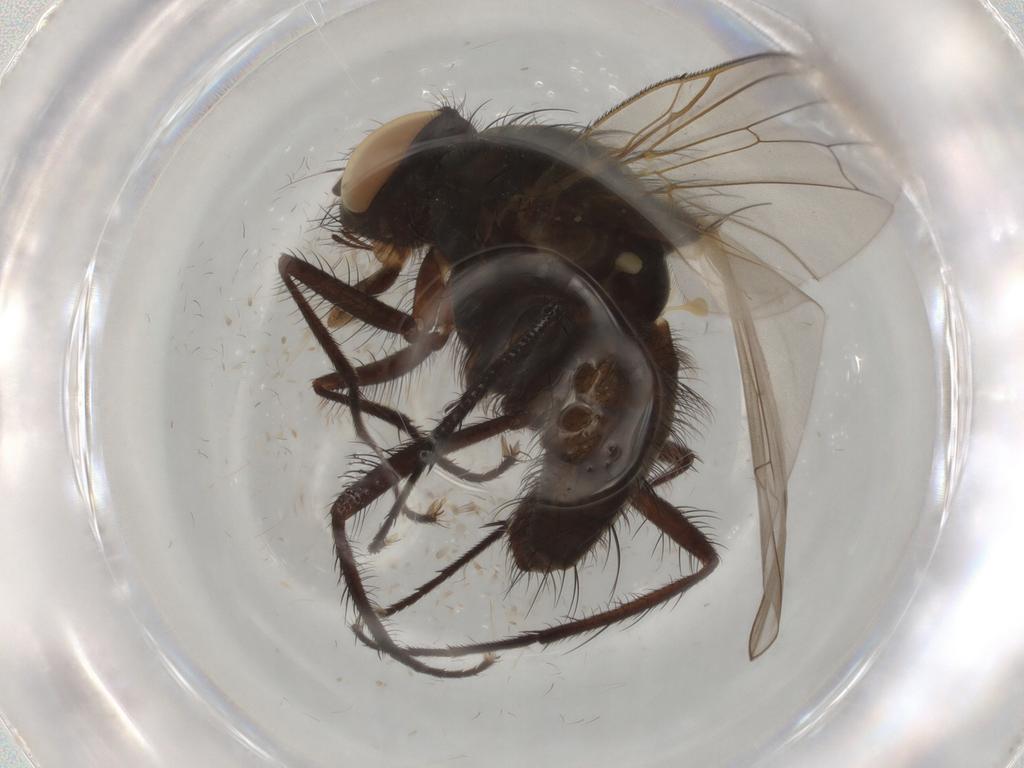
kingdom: Animalia
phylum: Arthropoda
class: Insecta
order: Diptera
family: Anthomyiidae
